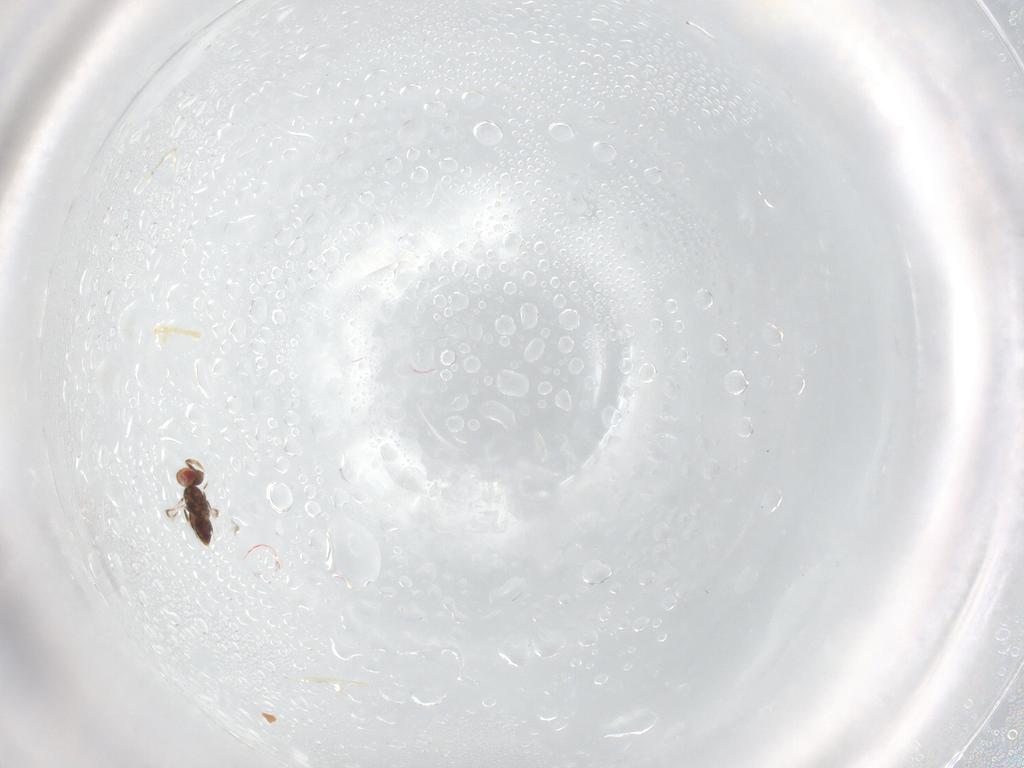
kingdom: Animalia
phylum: Arthropoda
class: Insecta
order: Hymenoptera
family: Trichogrammatidae
